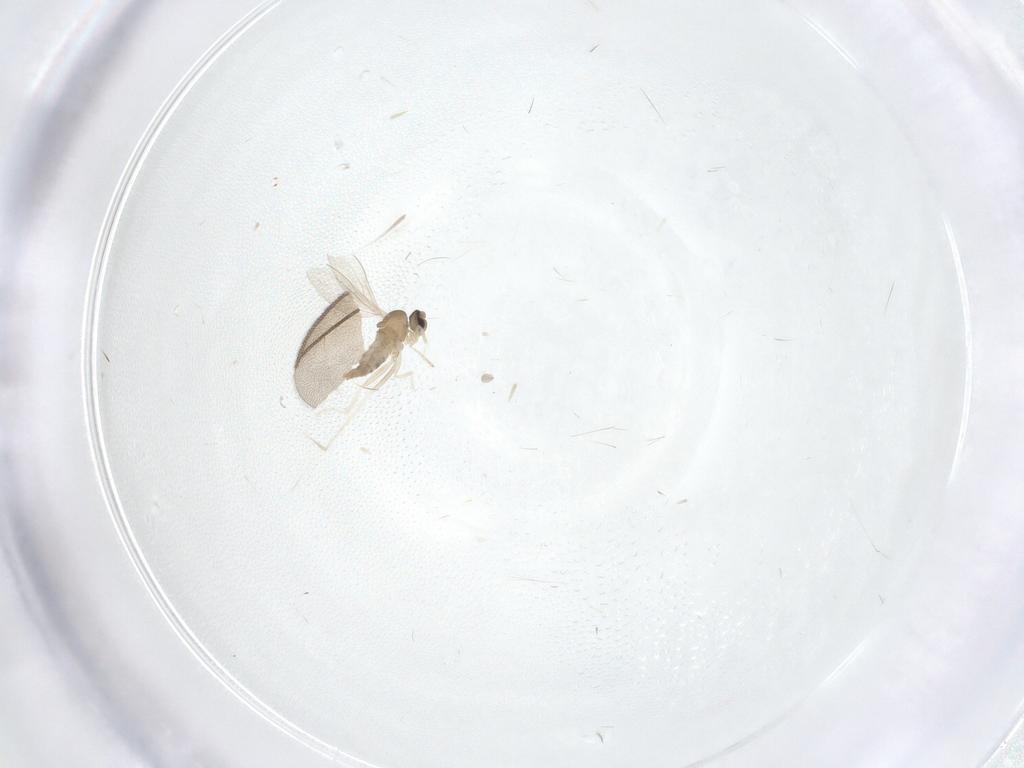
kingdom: Animalia
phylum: Arthropoda
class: Insecta
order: Diptera
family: Cecidomyiidae
